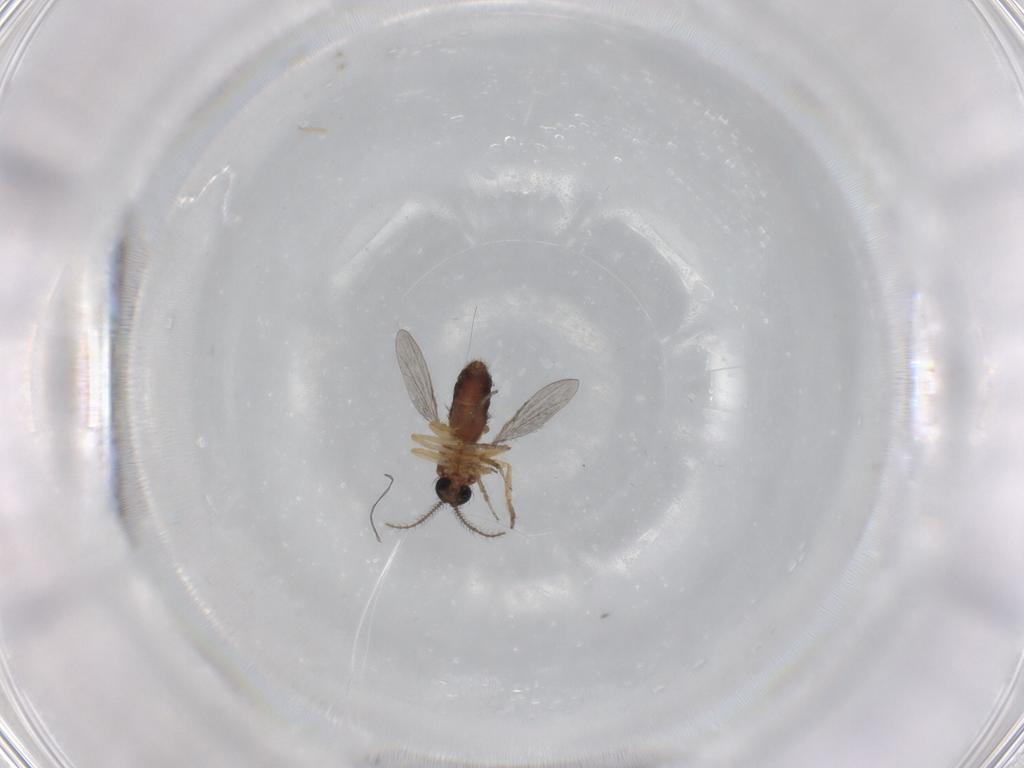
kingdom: Animalia
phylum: Arthropoda
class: Insecta
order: Diptera
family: Ceratopogonidae
